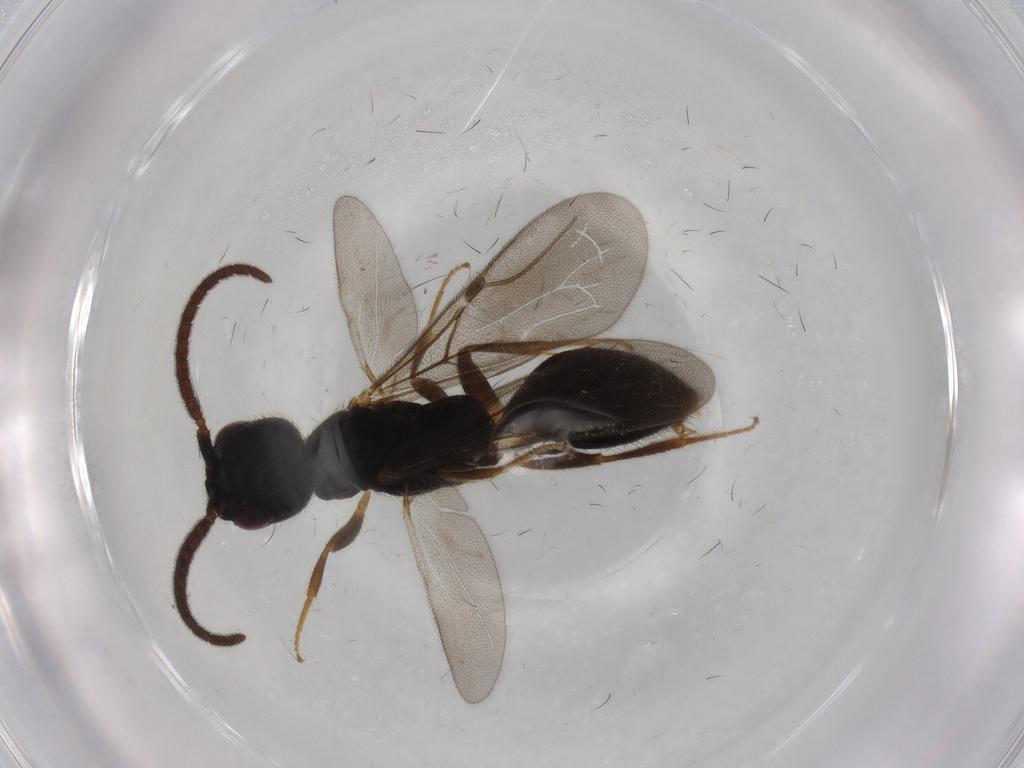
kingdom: Animalia
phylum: Arthropoda
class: Insecta
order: Hymenoptera
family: Bethylidae
